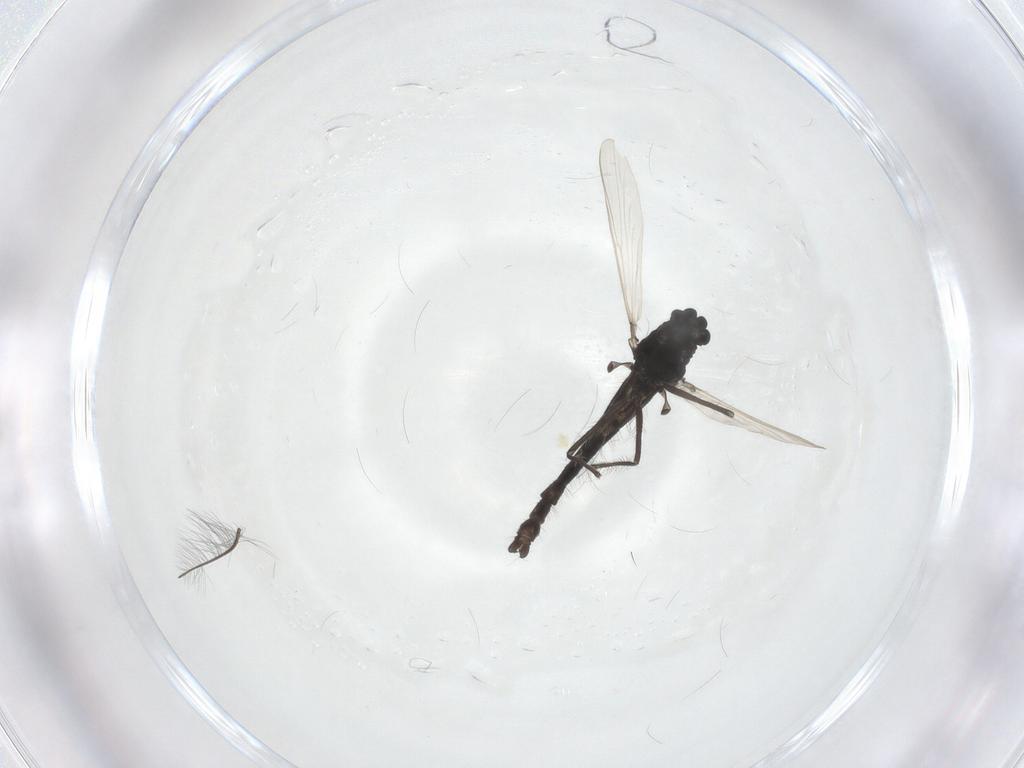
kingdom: Animalia
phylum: Arthropoda
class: Insecta
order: Diptera
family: Chironomidae
